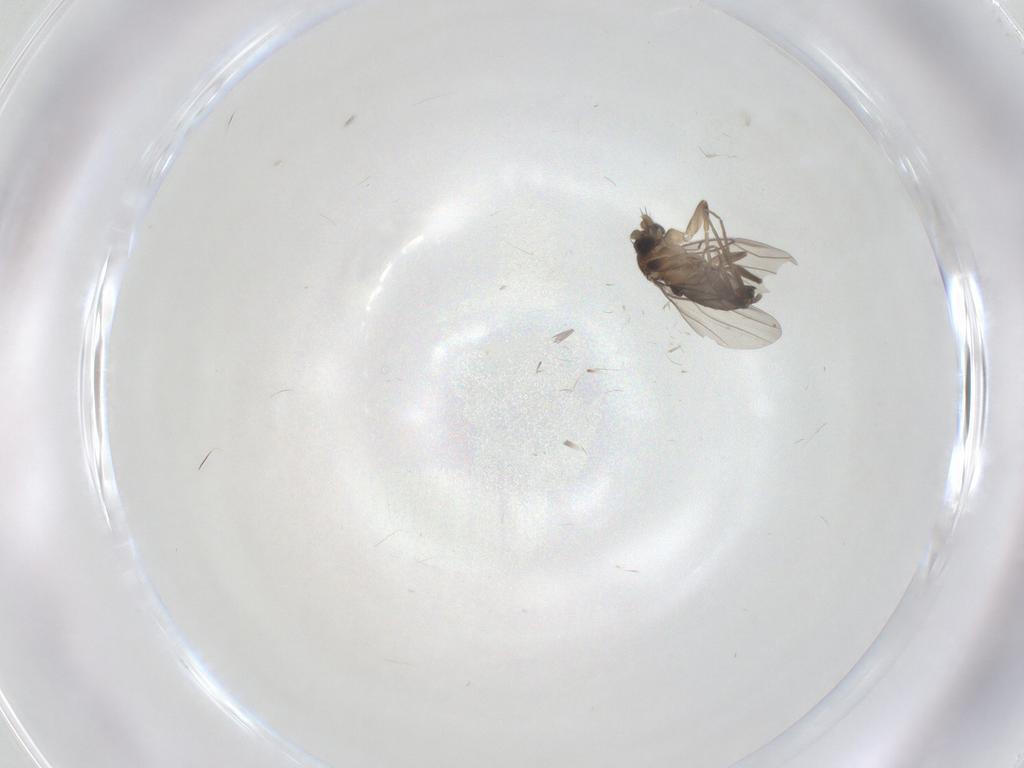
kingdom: Animalia
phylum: Arthropoda
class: Insecta
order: Diptera
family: Phoridae
